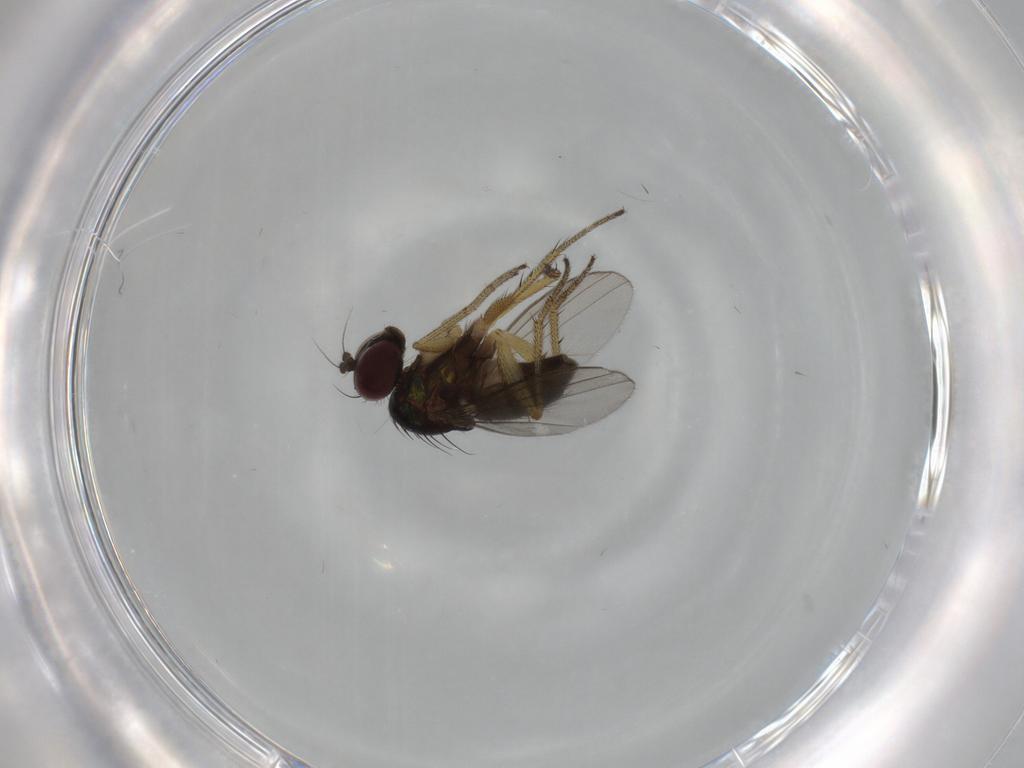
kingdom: Animalia
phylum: Arthropoda
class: Insecta
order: Diptera
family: Dolichopodidae
